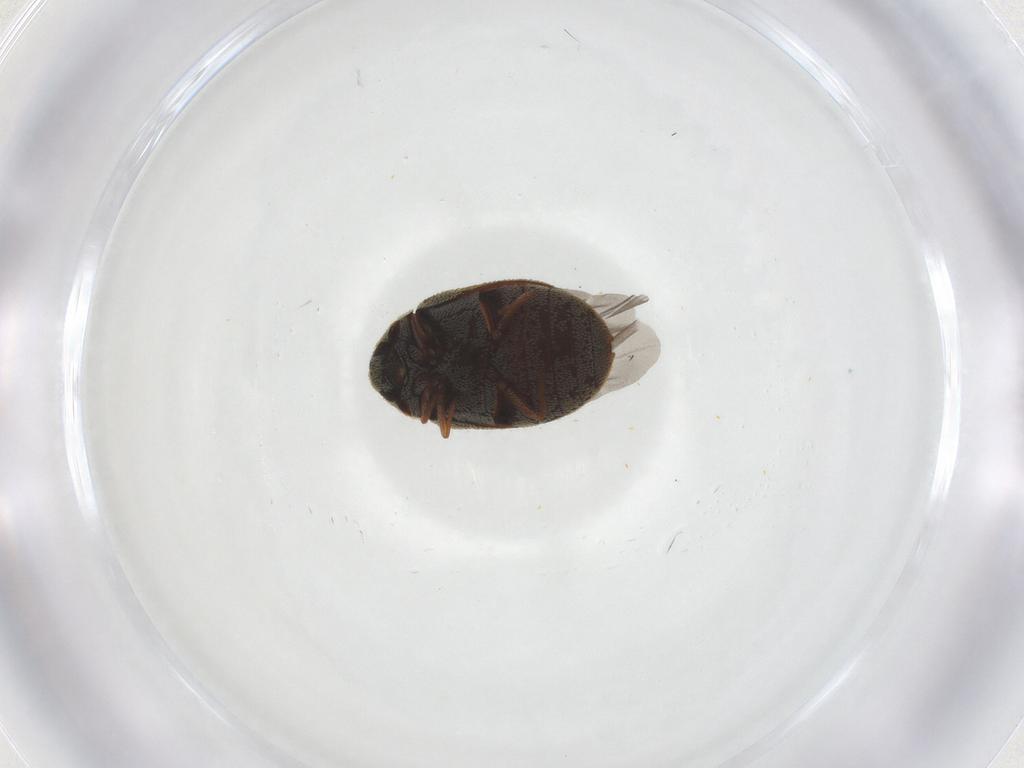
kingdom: Animalia
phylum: Arthropoda
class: Insecta
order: Coleoptera
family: Dermestidae
